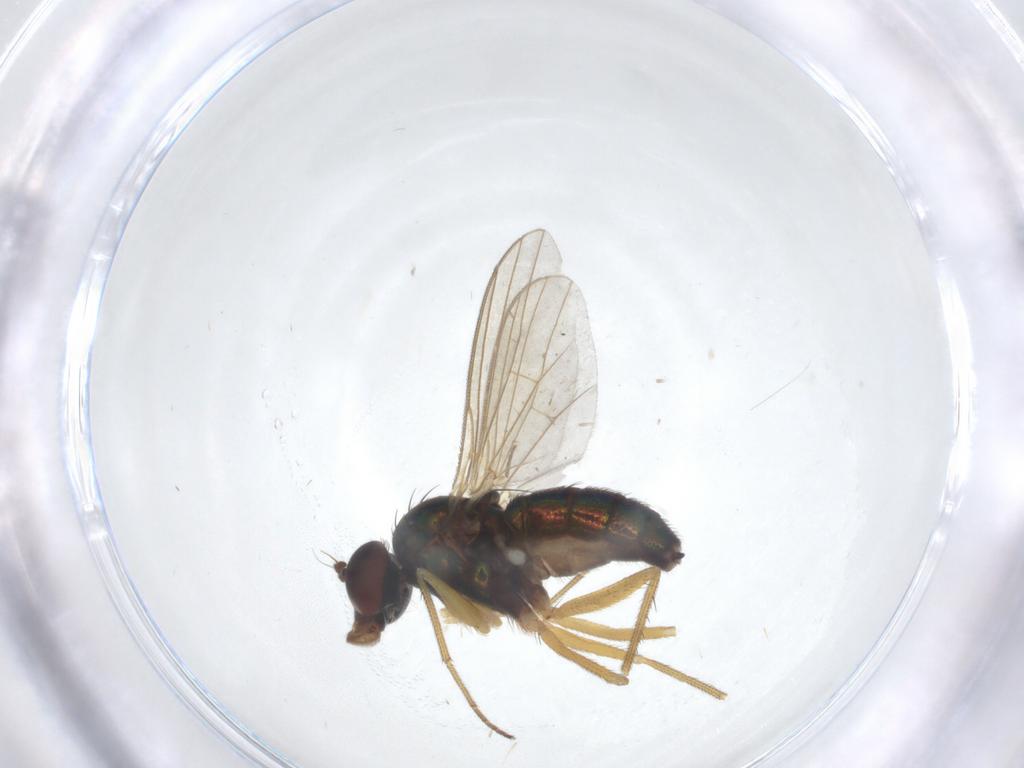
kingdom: Animalia
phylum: Arthropoda
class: Insecta
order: Diptera
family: Dolichopodidae
